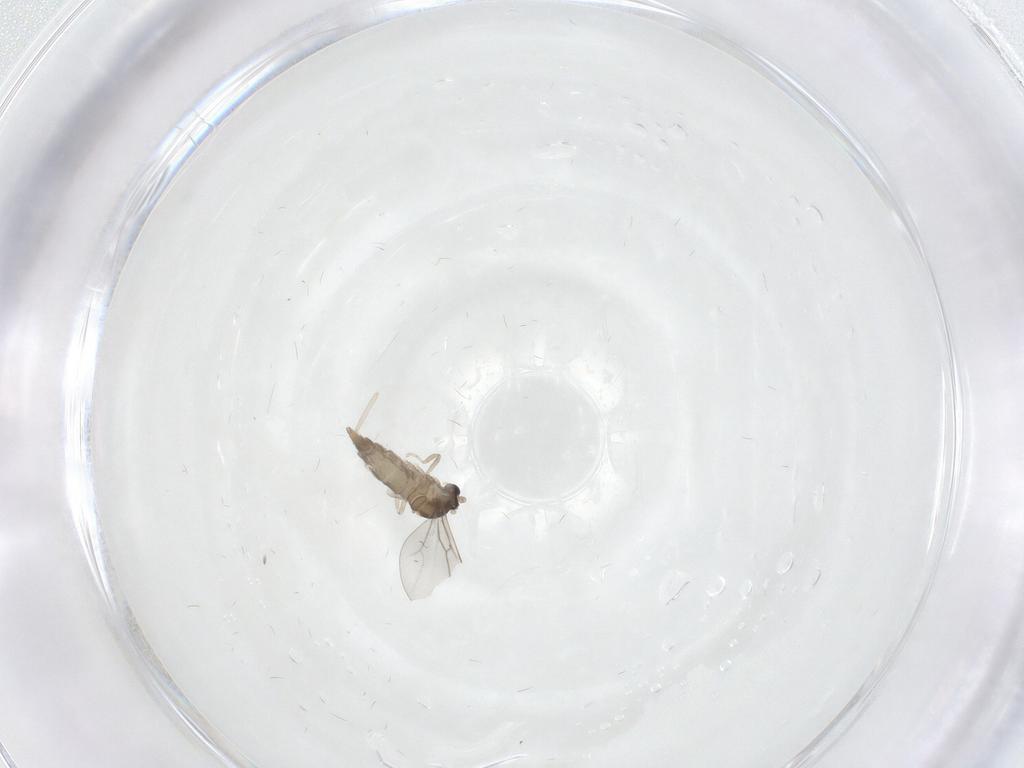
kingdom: Animalia
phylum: Arthropoda
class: Insecta
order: Diptera
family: Cecidomyiidae
